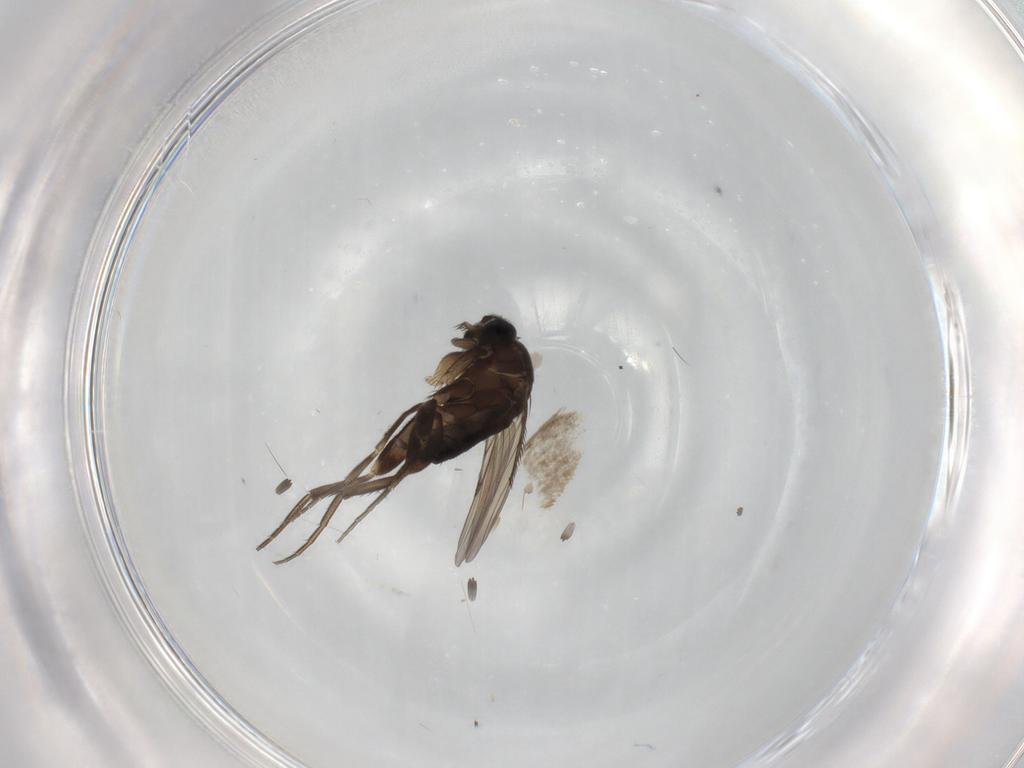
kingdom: Animalia
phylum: Arthropoda
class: Insecta
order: Diptera
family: Phoridae
